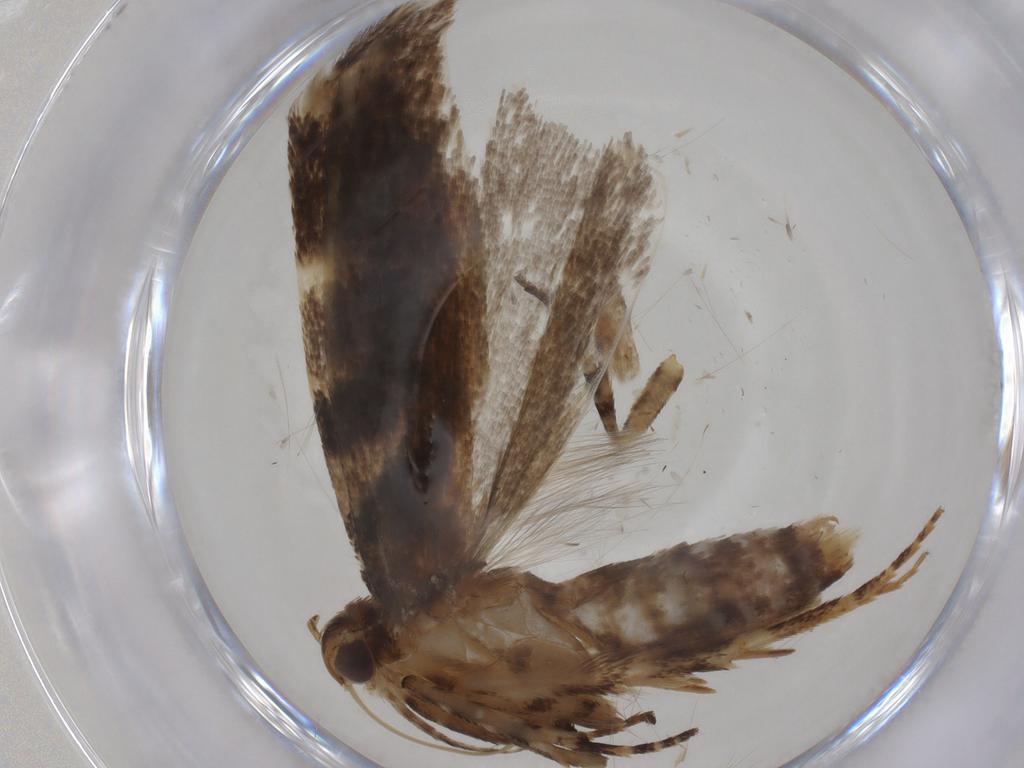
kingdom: Animalia
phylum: Arthropoda
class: Insecta
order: Lepidoptera
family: Gelechiidae
